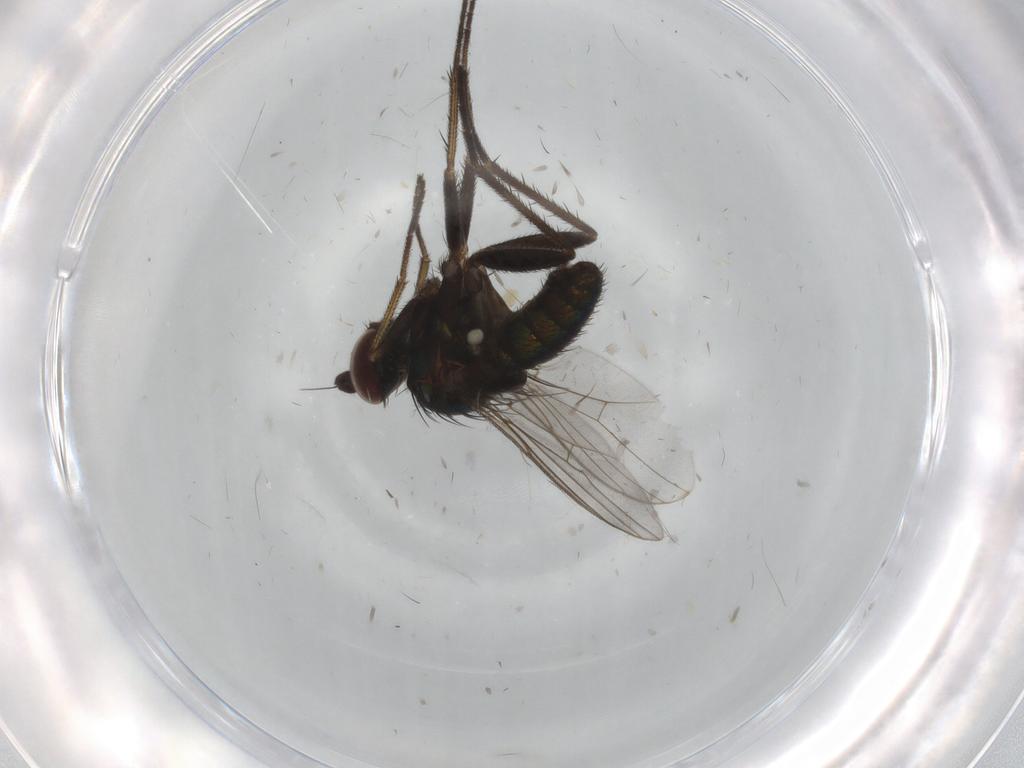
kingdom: Animalia
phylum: Arthropoda
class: Insecta
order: Diptera
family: Dolichopodidae
